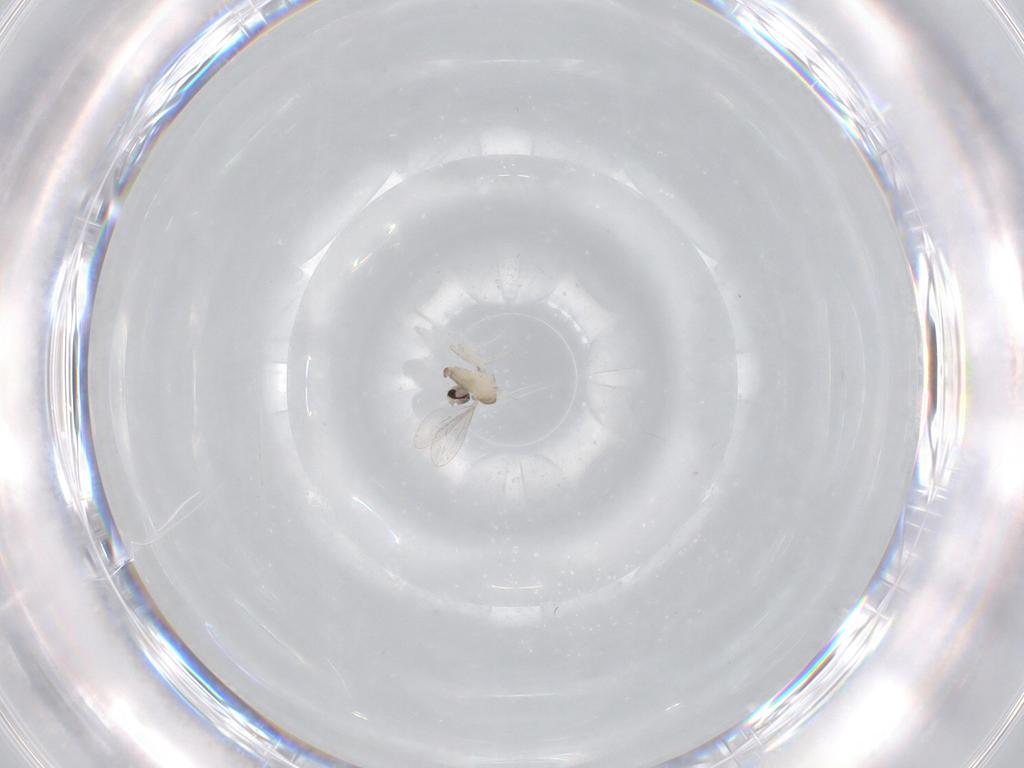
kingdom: Animalia
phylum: Arthropoda
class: Insecta
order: Diptera
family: Cecidomyiidae
